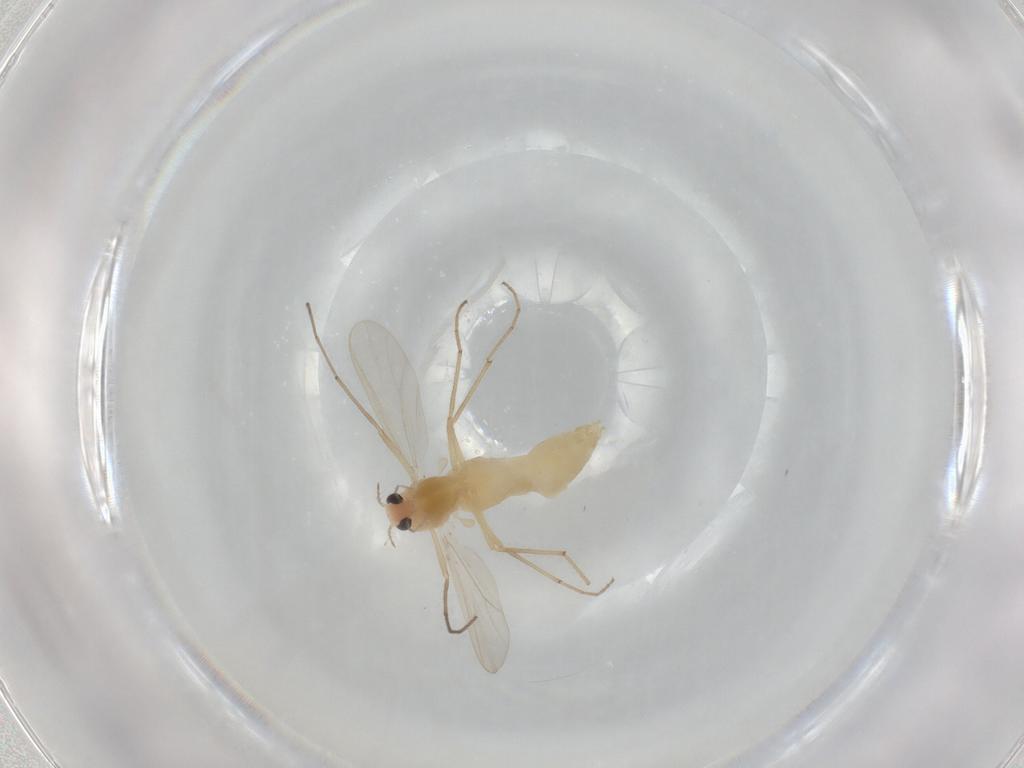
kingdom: Animalia
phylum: Arthropoda
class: Insecta
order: Diptera
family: Chironomidae
